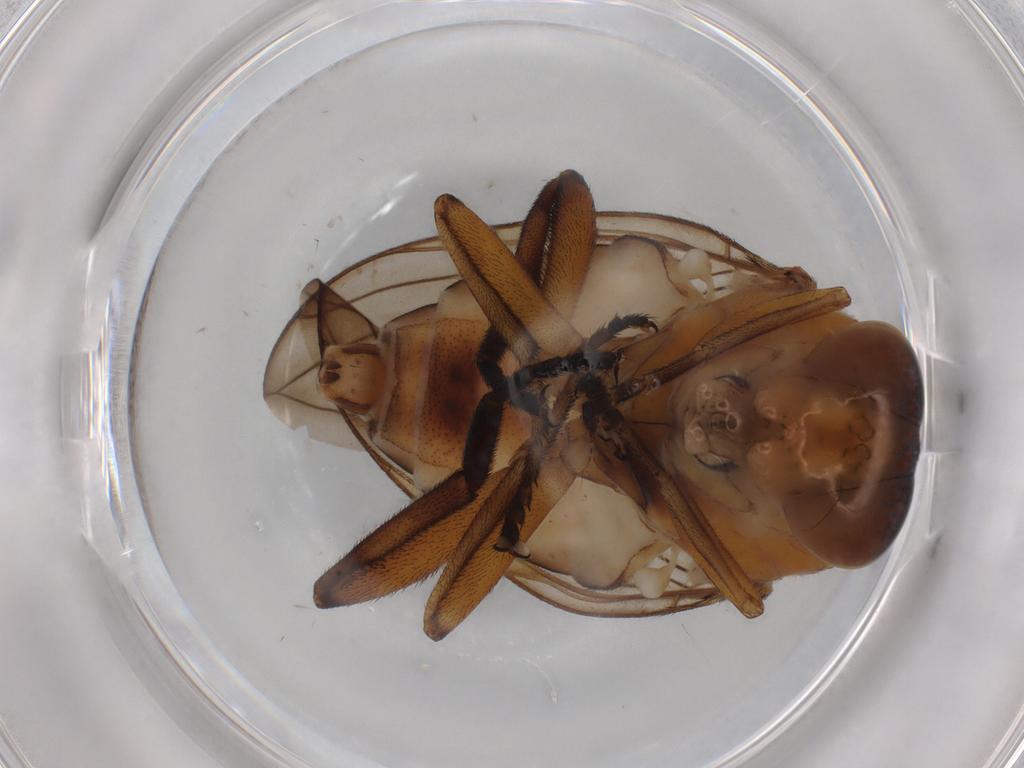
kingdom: Animalia
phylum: Arthropoda
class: Insecta
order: Diptera
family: Syrphidae
